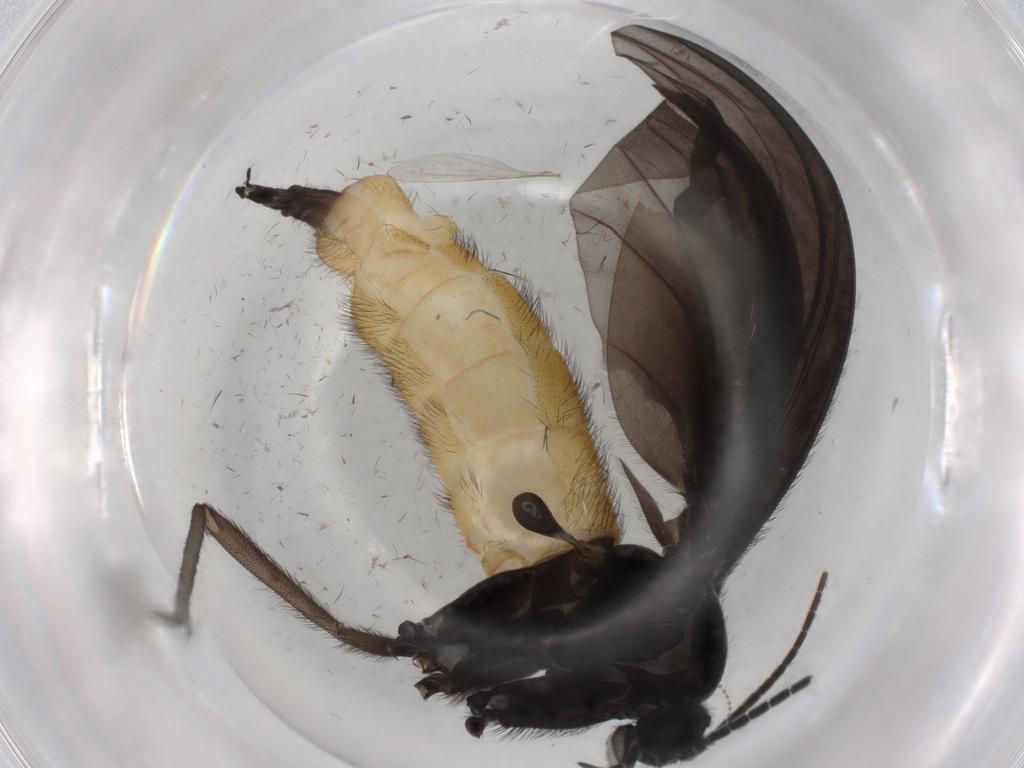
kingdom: Animalia
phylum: Arthropoda
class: Insecta
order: Diptera
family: Sciaridae
